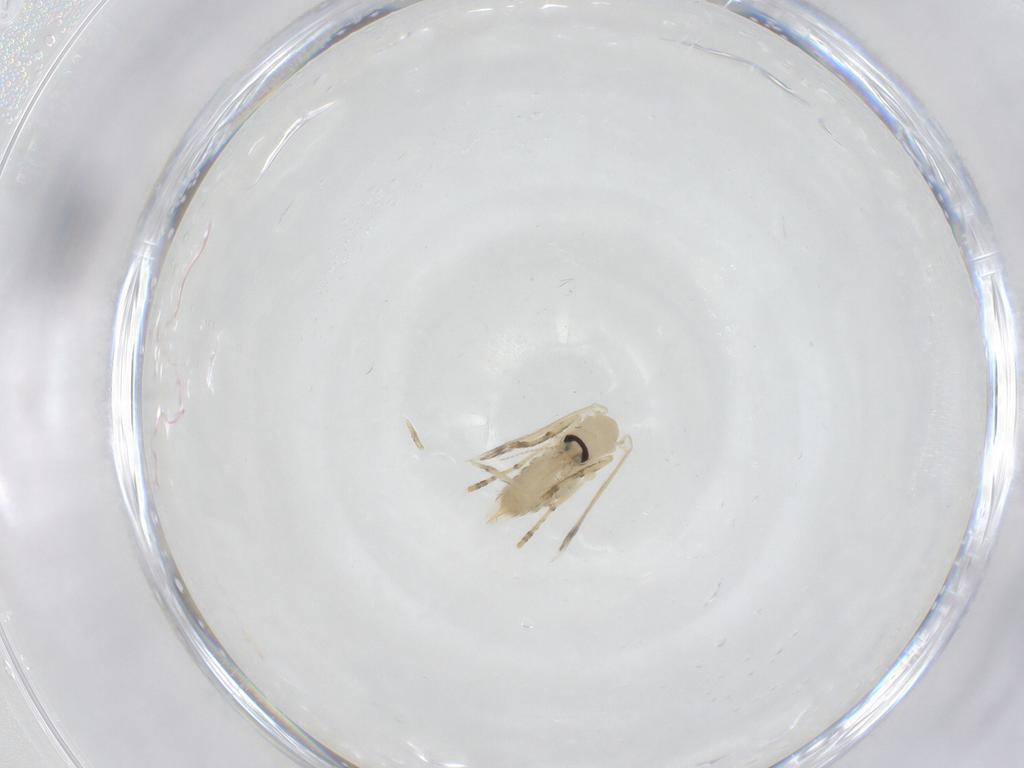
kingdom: Animalia
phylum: Arthropoda
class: Insecta
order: Diptera
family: Psychodidae
